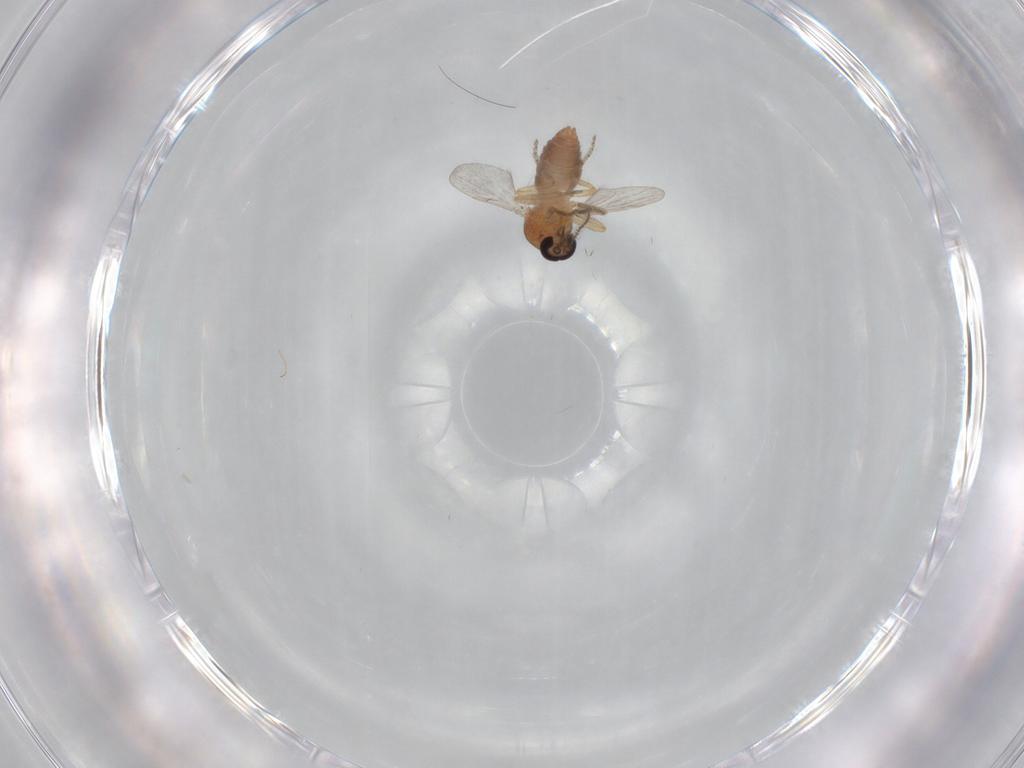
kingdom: Animalia
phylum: Arthropoda
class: Insecta
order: Diptera
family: Ceratopogonidae
